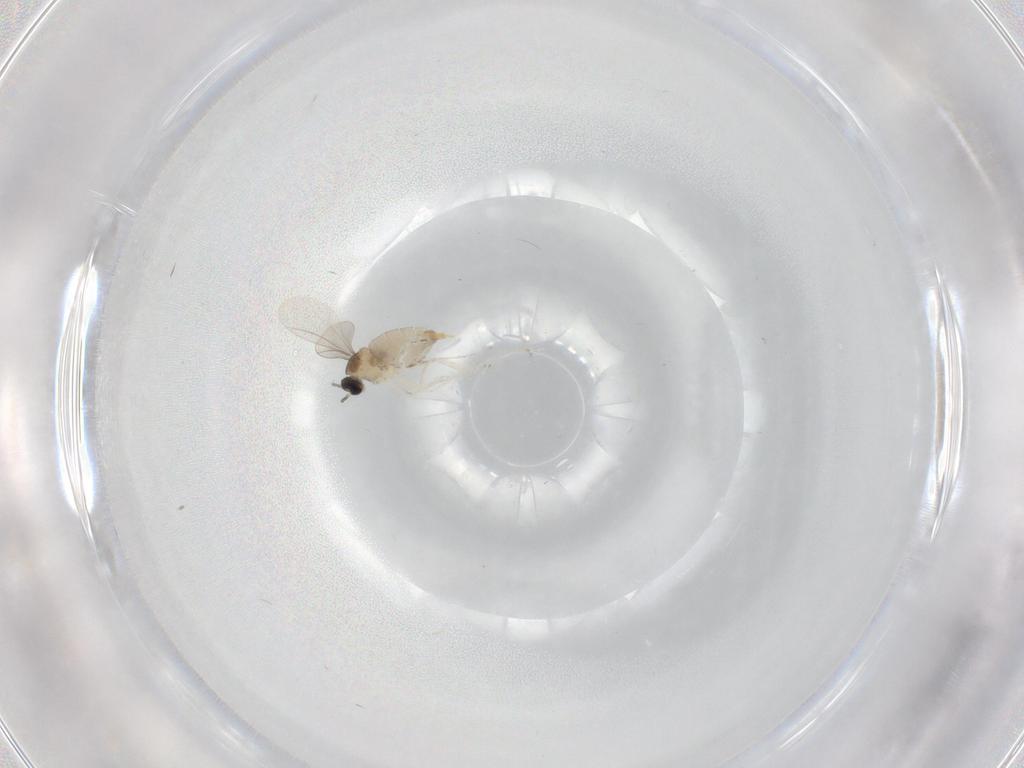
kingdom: Animalia
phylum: Arthropoda
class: Insecta
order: Diptera
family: Cecidomyiidae
